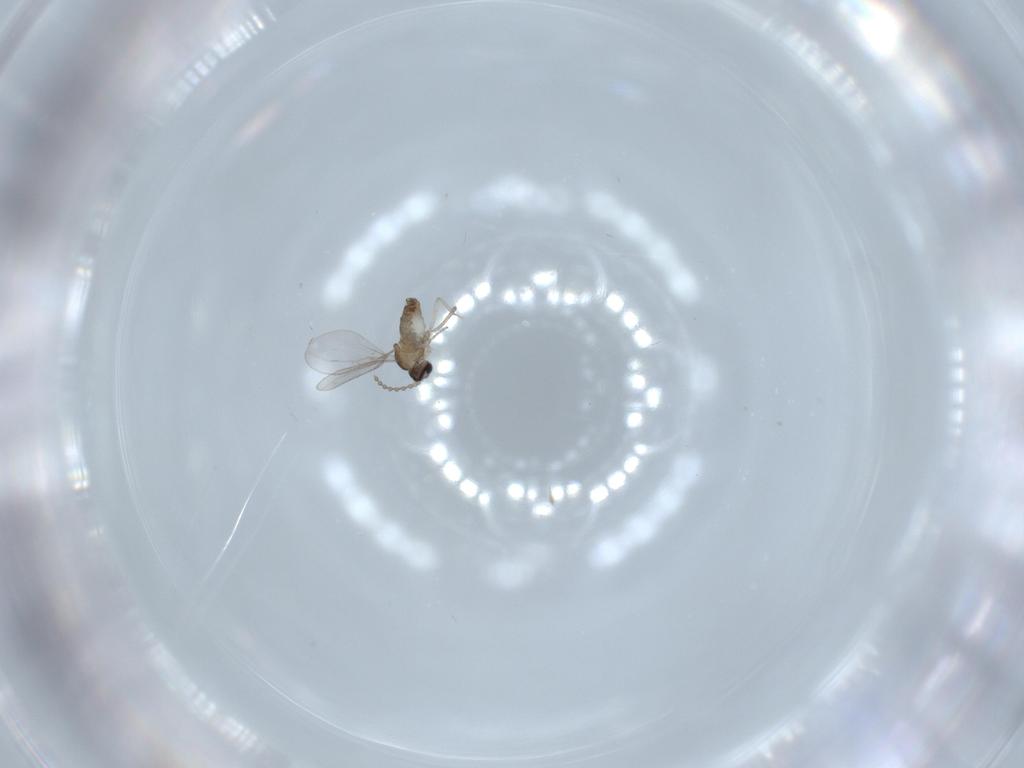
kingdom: Animalia
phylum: Arthropoda
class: Insecta
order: Diptera
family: Cecidomyiidae
